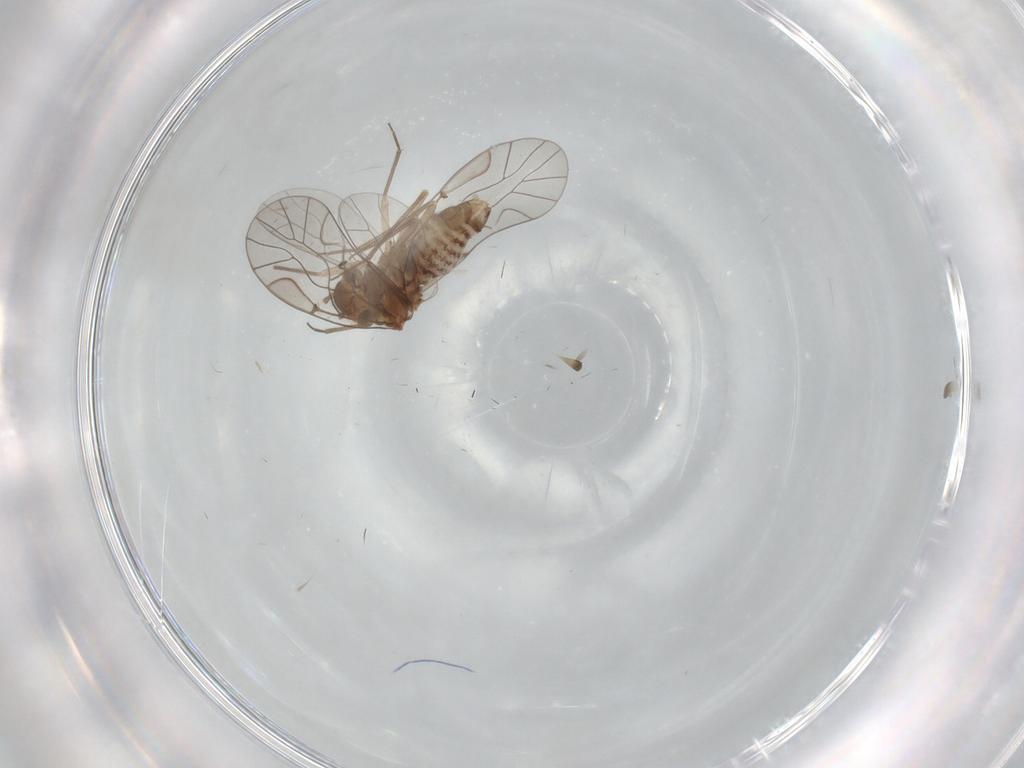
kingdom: Animalia
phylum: Arthropoda
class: Insecta
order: Psocodea
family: Lachesillidae
